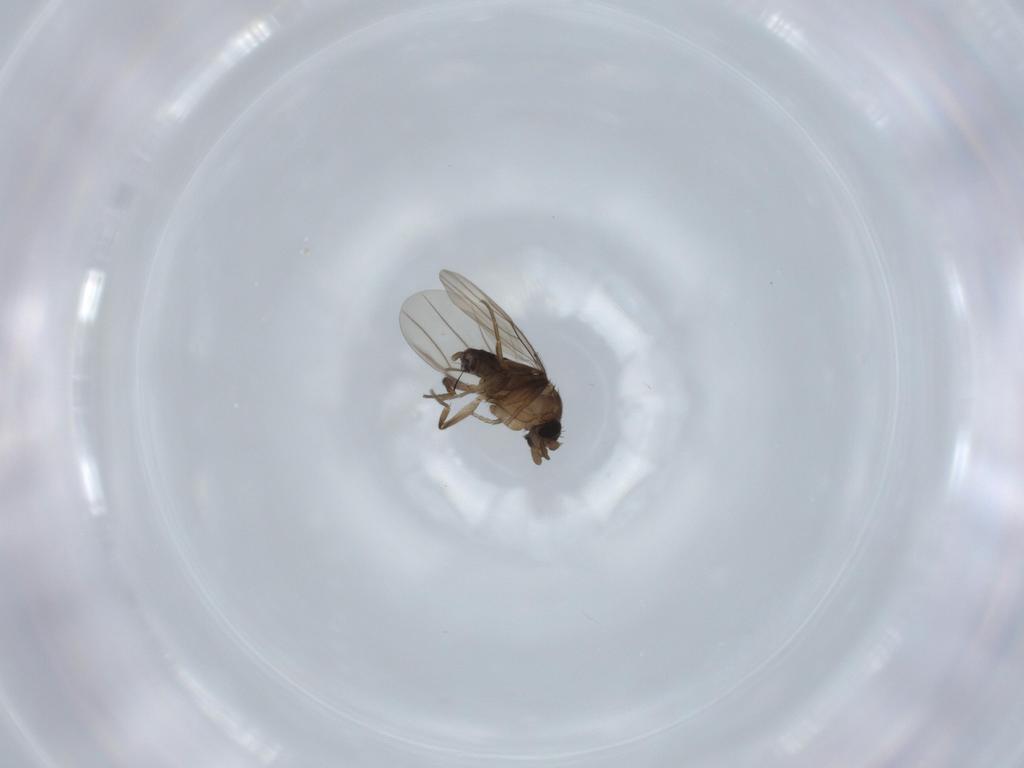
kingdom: Animalia
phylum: Arthropoda
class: Insecta
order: Diptera
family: Phoridae
